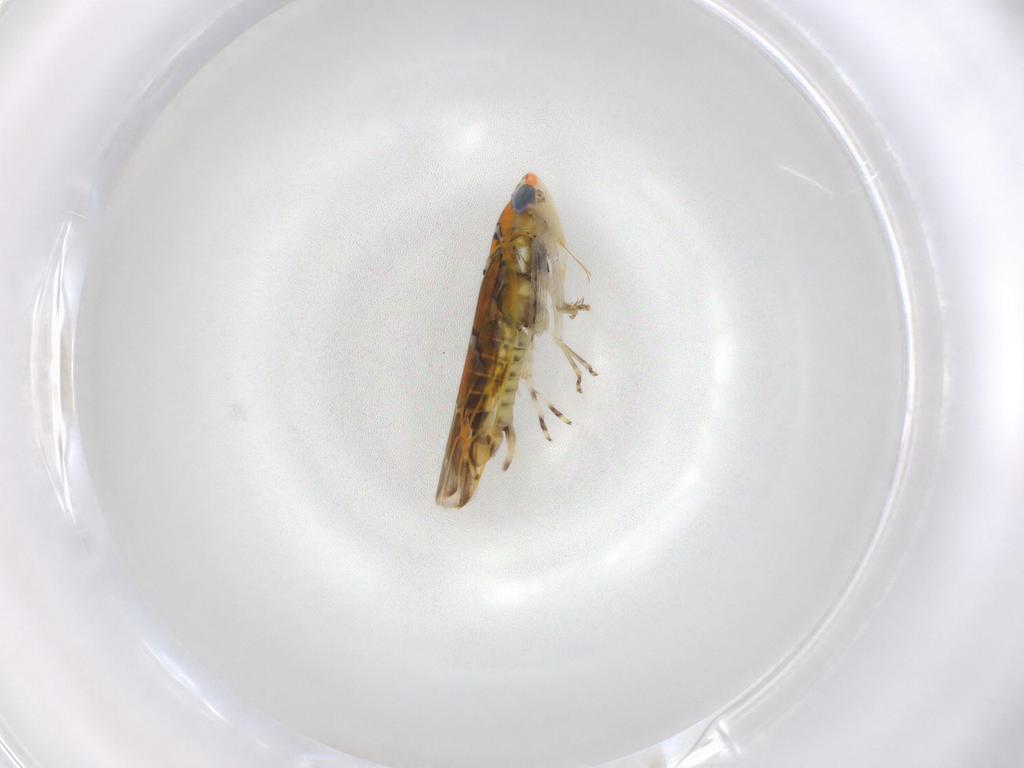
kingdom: Animalia
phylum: Arthropoda
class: Insecta
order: Hemiptera
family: Cicadellidae
